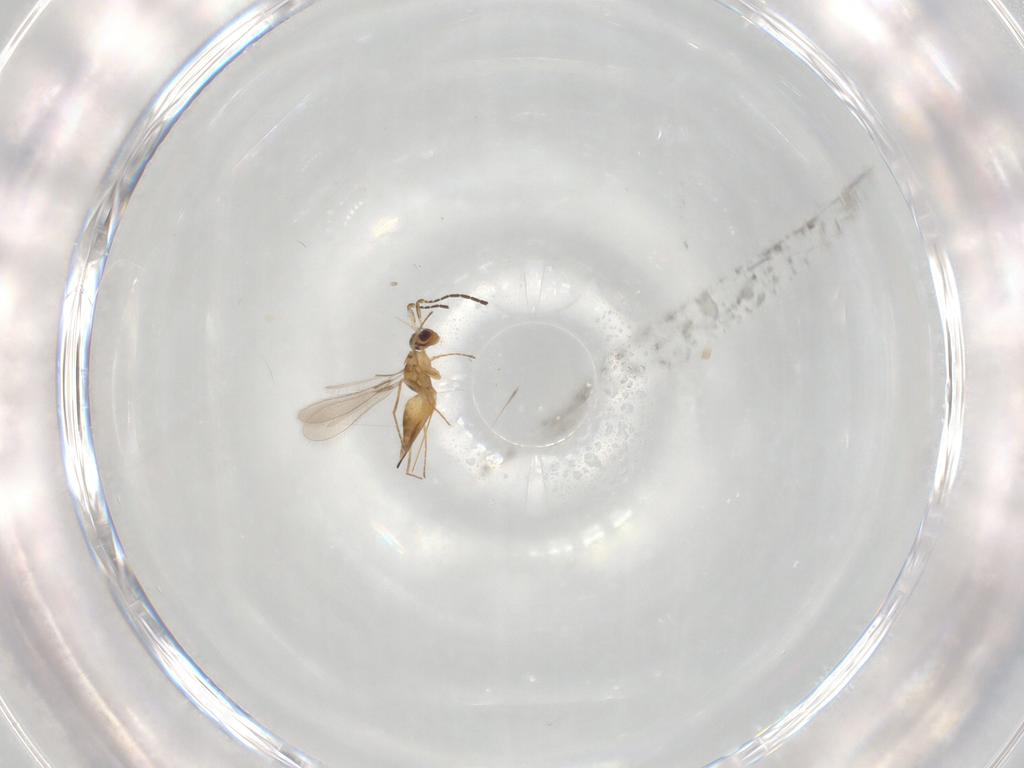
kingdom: Animalia
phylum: Arthropoda
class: Insecta
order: Hymenoptera
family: Mymaridae
